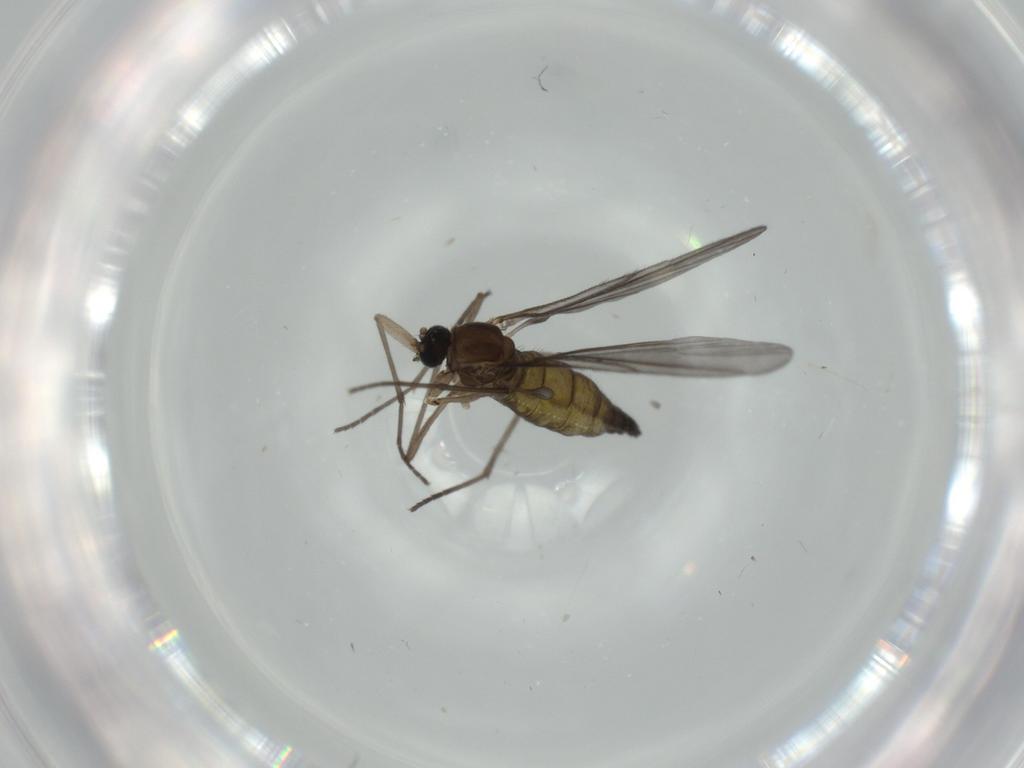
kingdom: Animalia
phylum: Arthropoda
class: Insecta
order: Diptera
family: Sciaridae
